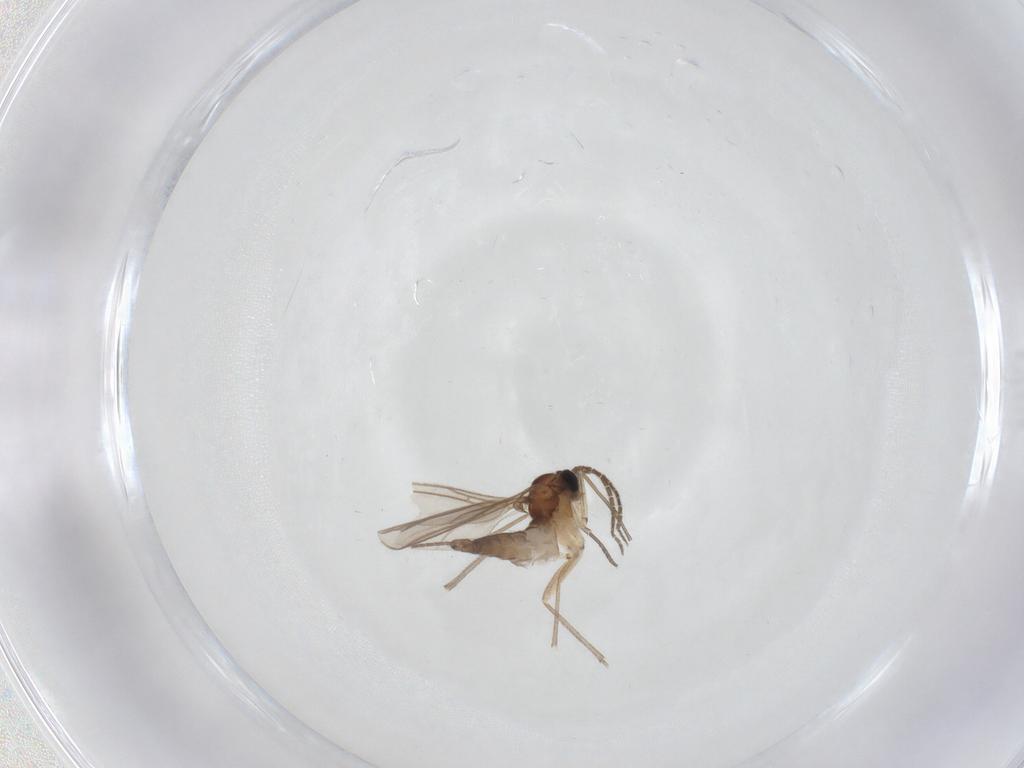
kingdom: Animalia
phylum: Arthropoda
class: Insecta
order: Diptera
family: Sciaridae
